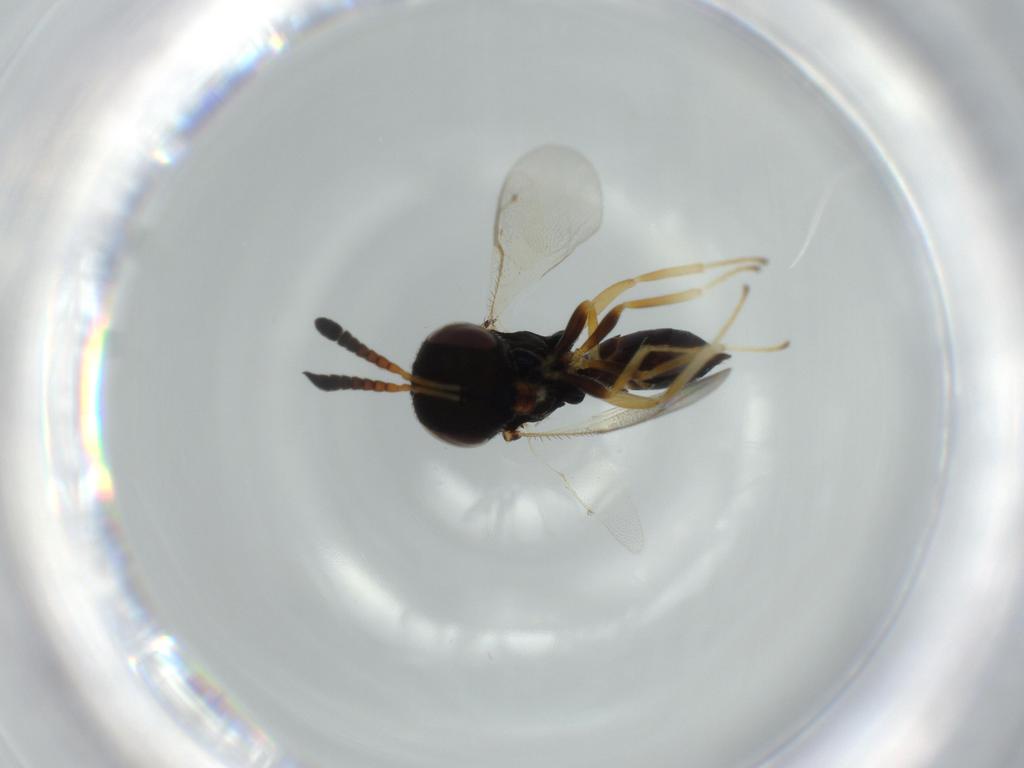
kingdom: Animalia
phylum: Arthropoda
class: Insecta
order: Hymenoptera
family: Pteromalidae
